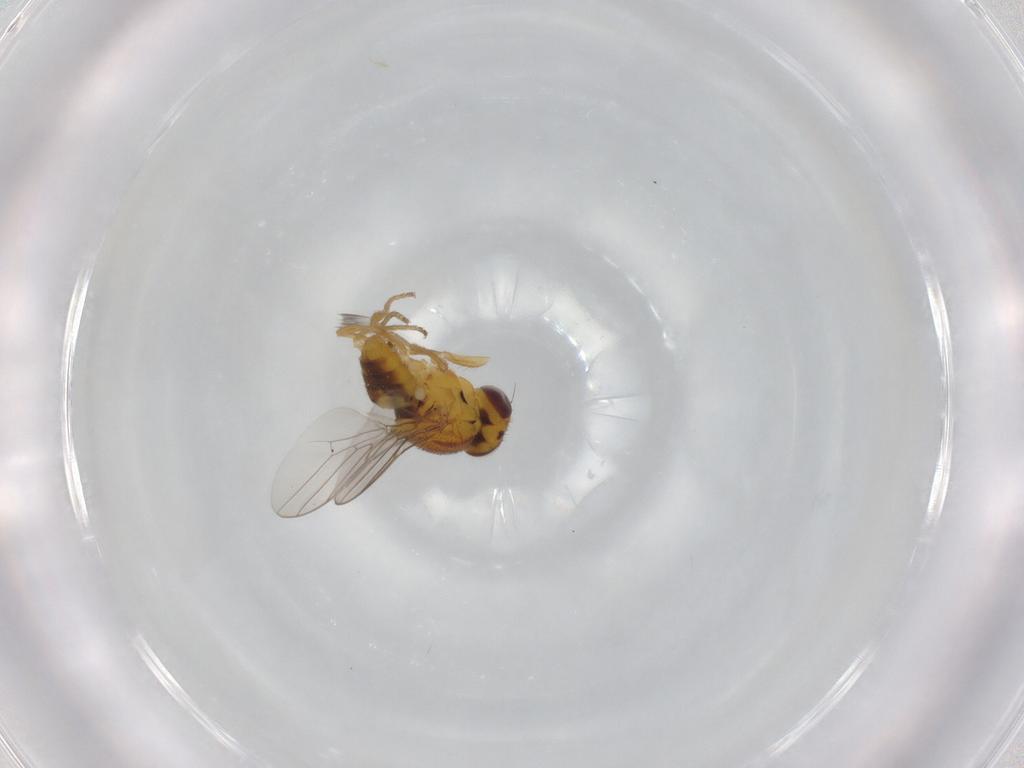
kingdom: Animalia
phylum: Arthropoda
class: Insecta
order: Diptera
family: Chloropidae
